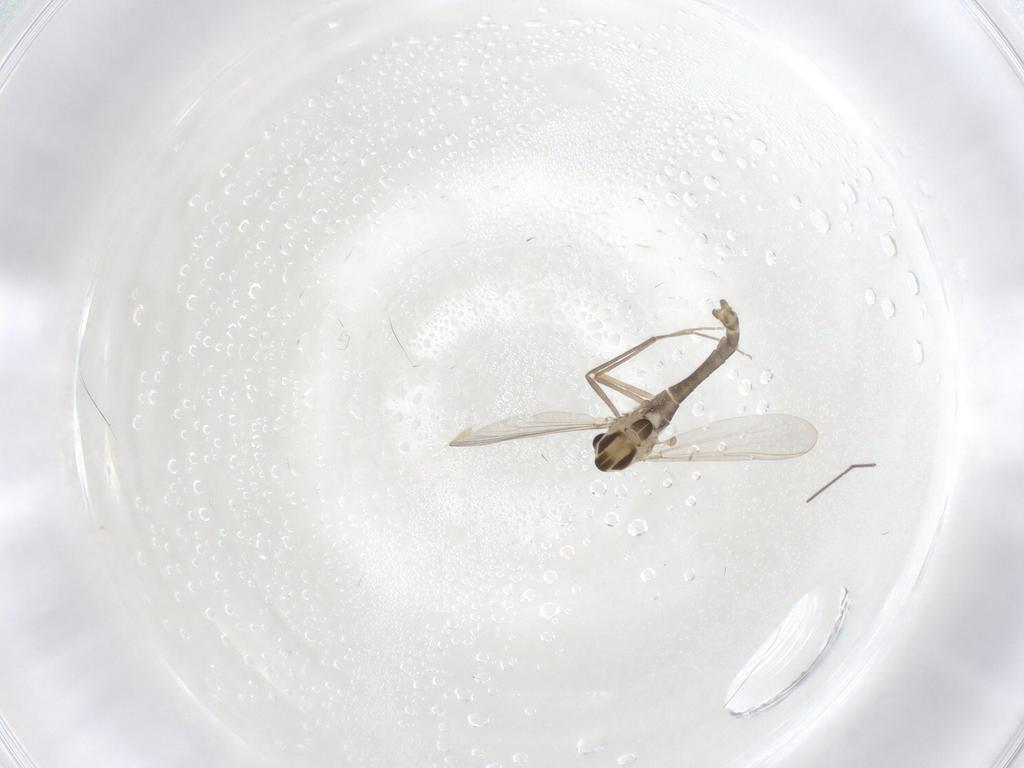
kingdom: Animalia
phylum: Arthropoda
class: Insecta
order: Diptera
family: Chironomidae
